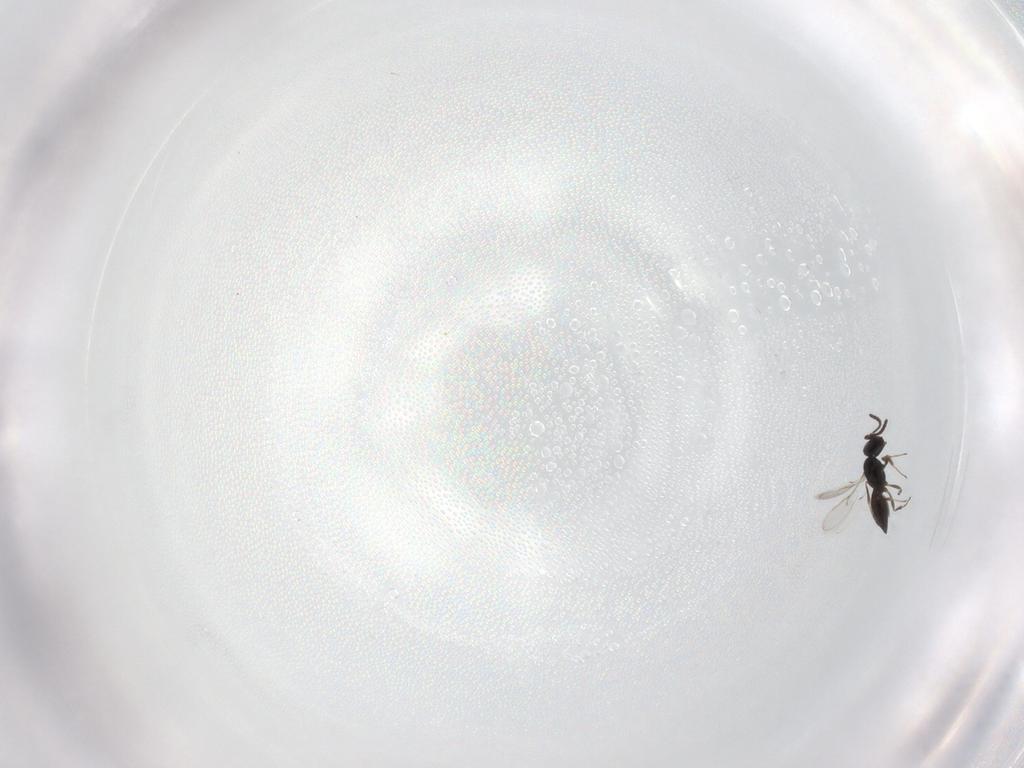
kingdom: Animalia
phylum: Arthropoda
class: Insecta
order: Hymenoptera
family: Scelionidae
